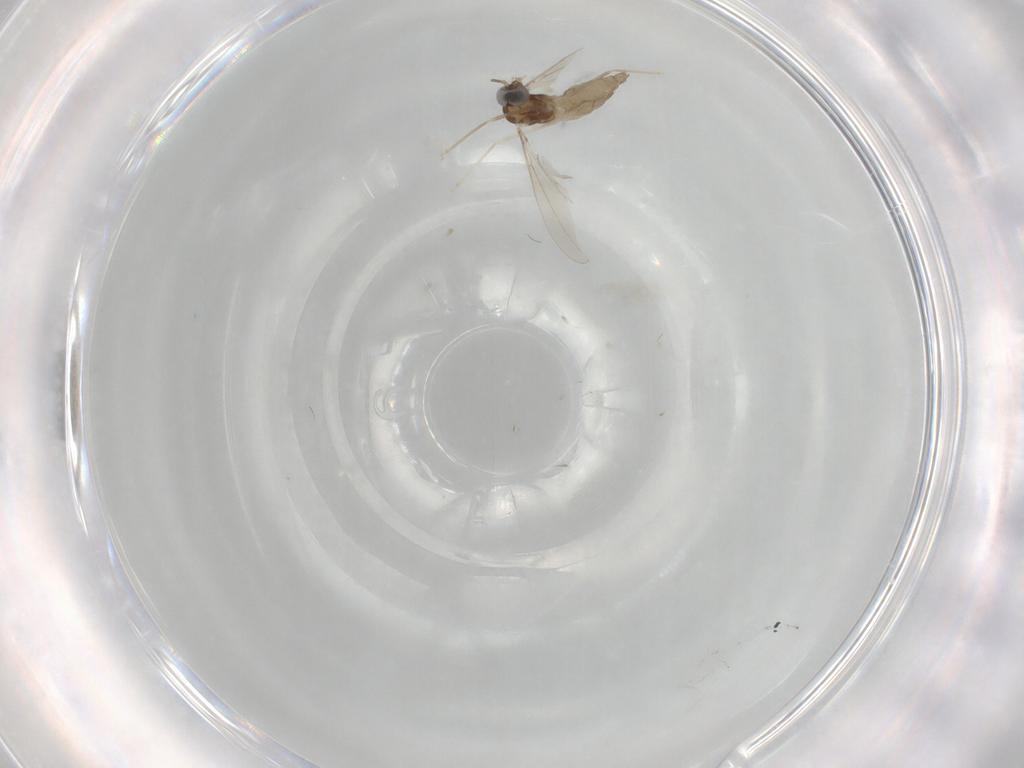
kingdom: Animalia
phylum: Arthropoda
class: Insecta
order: Diptera
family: Cecidomyiidae
